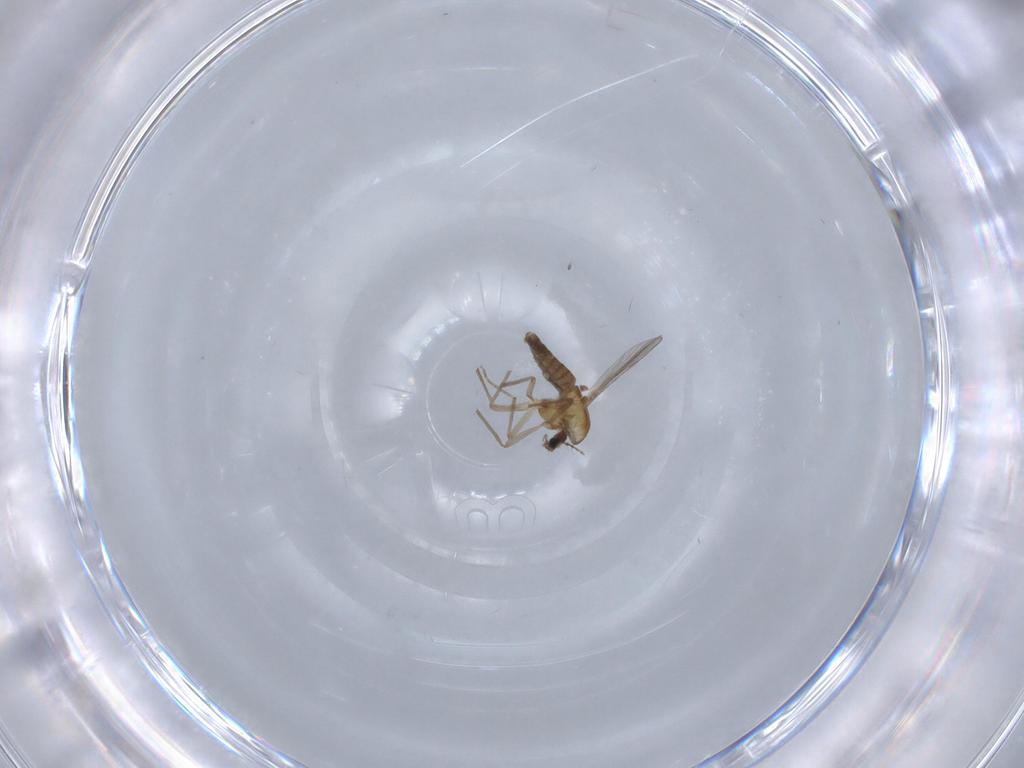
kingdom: Animalia
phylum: Arthropoda
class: Insecta
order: Diptera
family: Chironomidae
